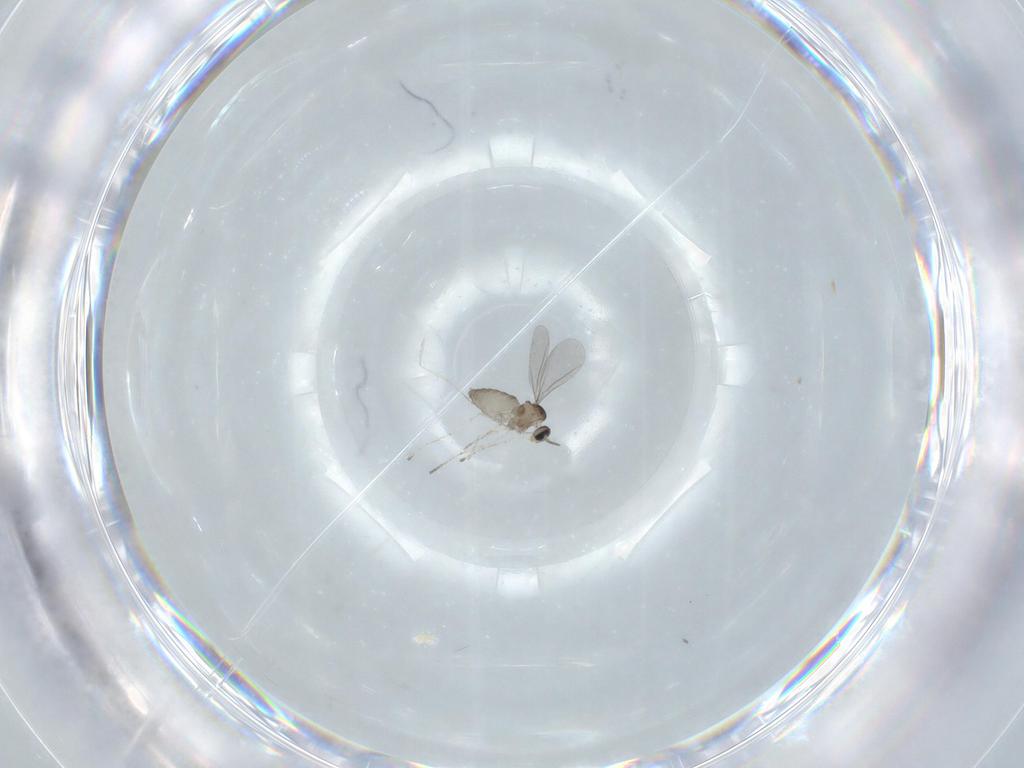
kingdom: Animalia
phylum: Arthropoda
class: Insecta
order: Diptera
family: Cecidomyiidae
